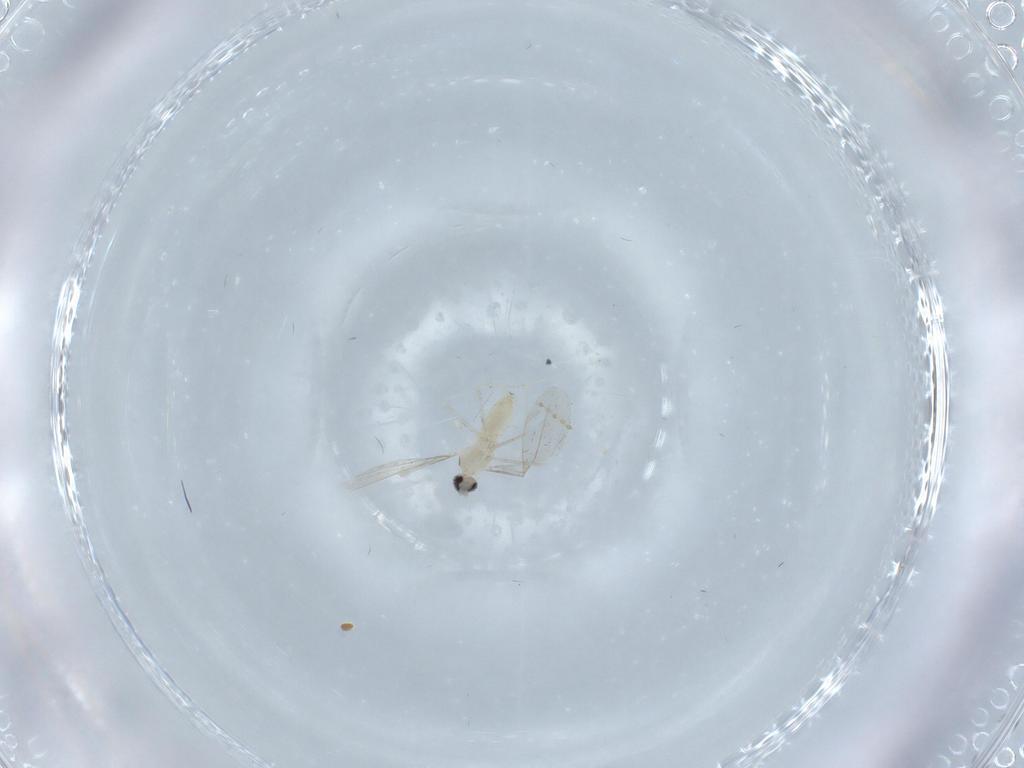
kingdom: Animalia
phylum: Arthropoda
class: Insecta
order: Diptera
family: Cecidomyiidae
